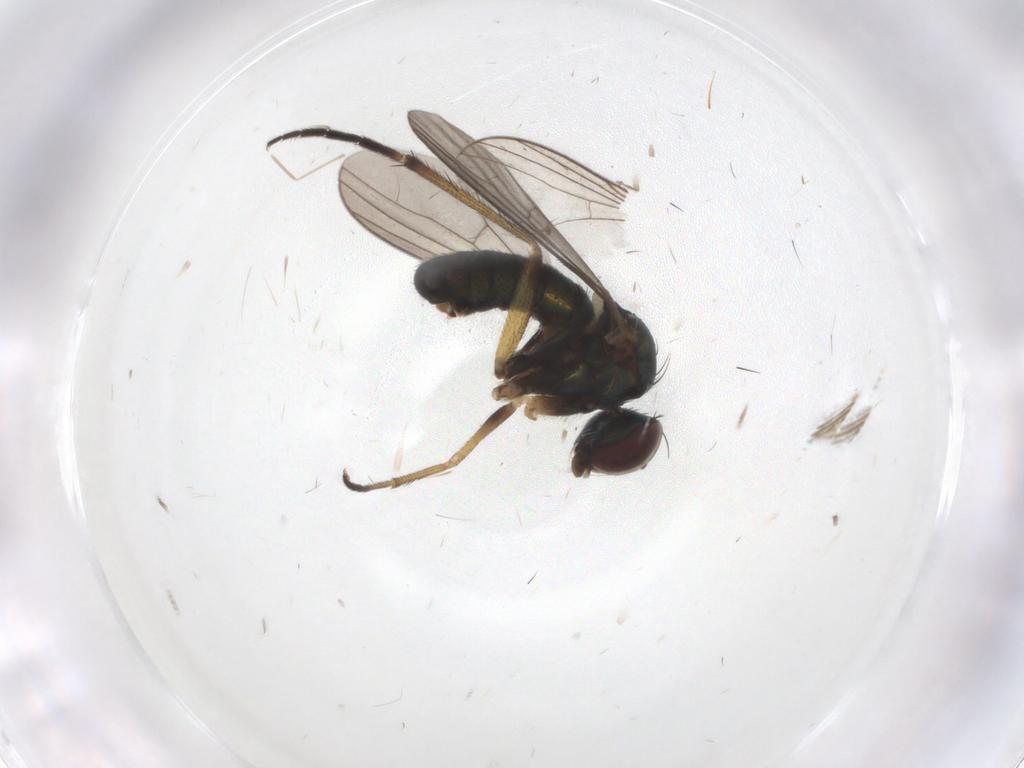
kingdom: Animalia
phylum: Arthropoda
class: Insecta
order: Diptera
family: Dolichopodidae
